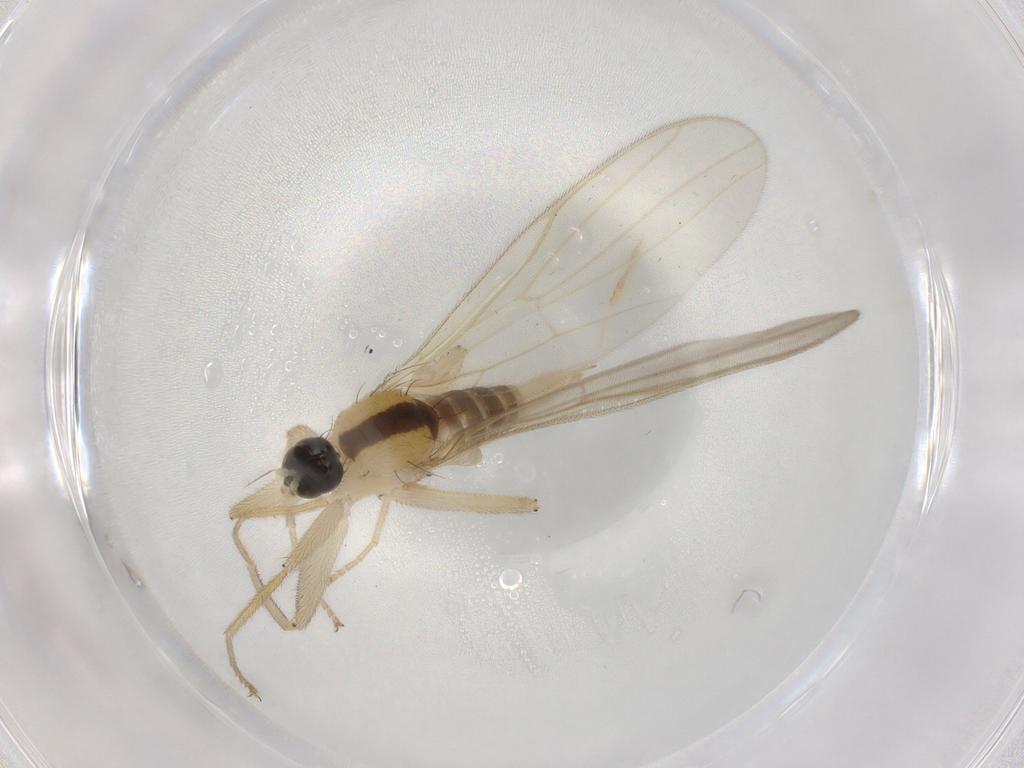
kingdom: Animalia
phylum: Arthropoda
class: Insecta
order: Diptera
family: Hybotidae
